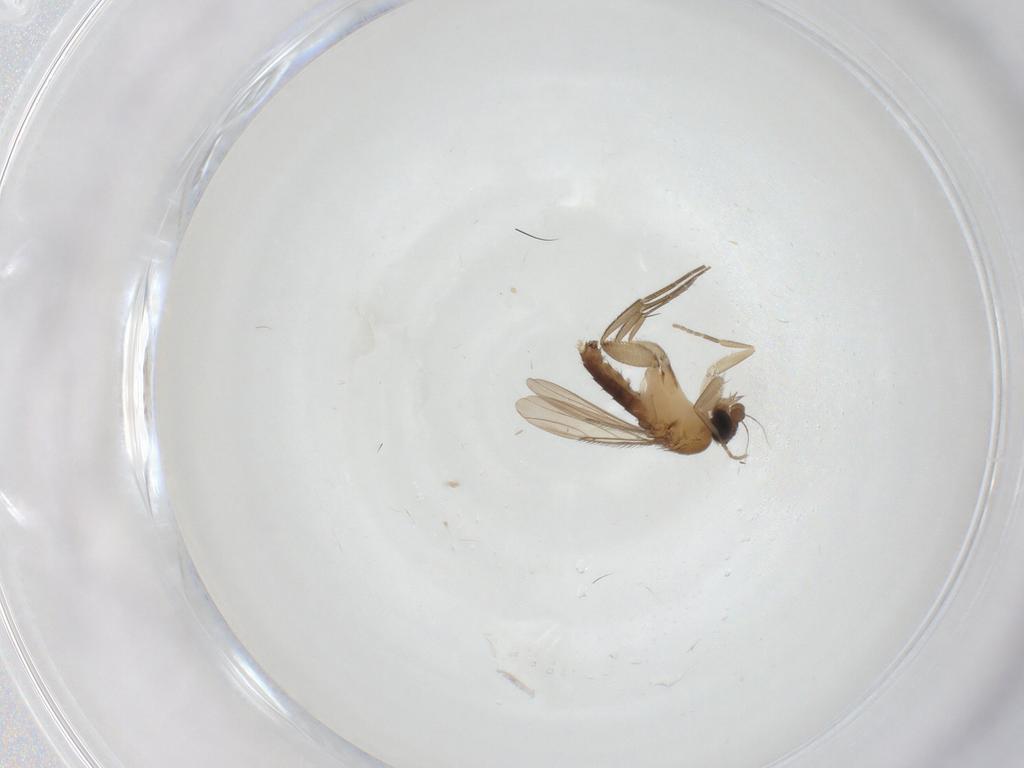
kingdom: Animalia
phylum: Arthropoda
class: Insecta
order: Diptera
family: Phoridae
